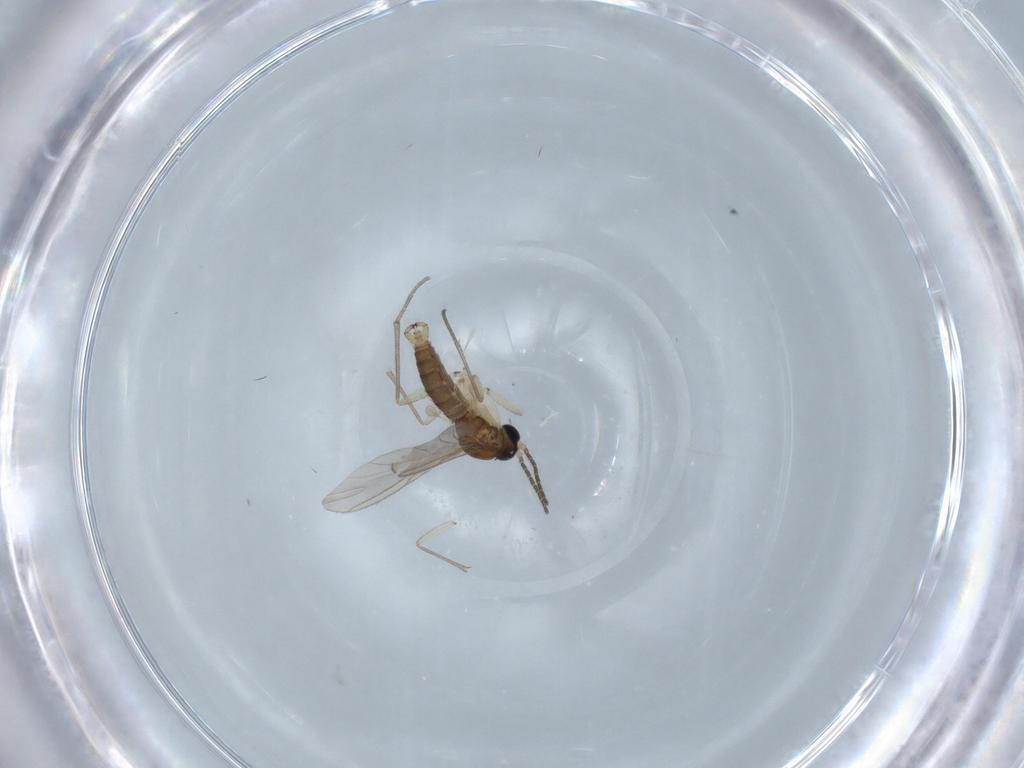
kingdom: Animalia
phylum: Arthropoda
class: Insecta
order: Diptera
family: Sciaridae
